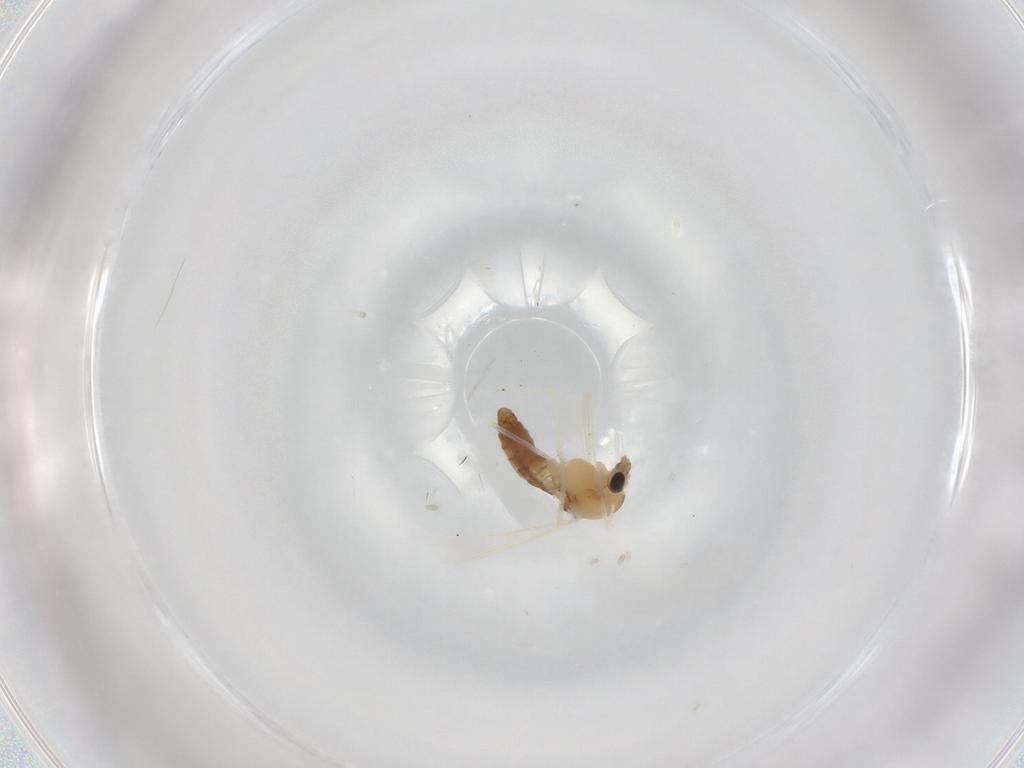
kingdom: Animalia
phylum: Arthropoda
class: Insecta
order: Diptera
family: Chironomidae
